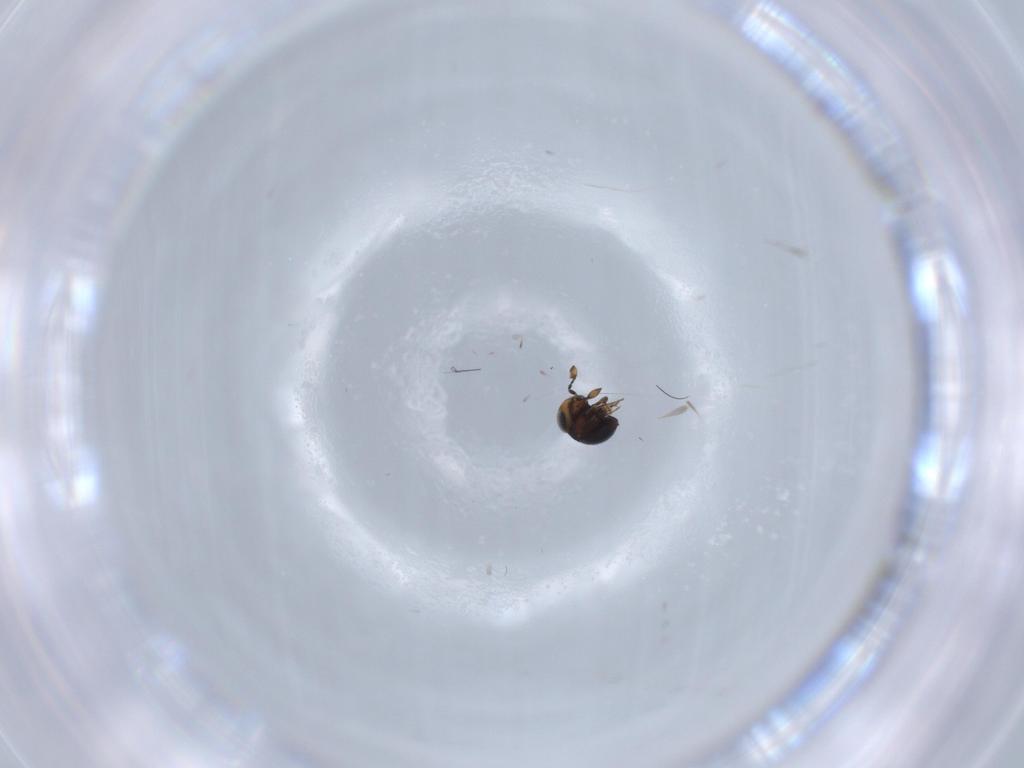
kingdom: Animalia
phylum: Arthropoda
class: Insecta
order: Hymenoptera
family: Scelionidae
